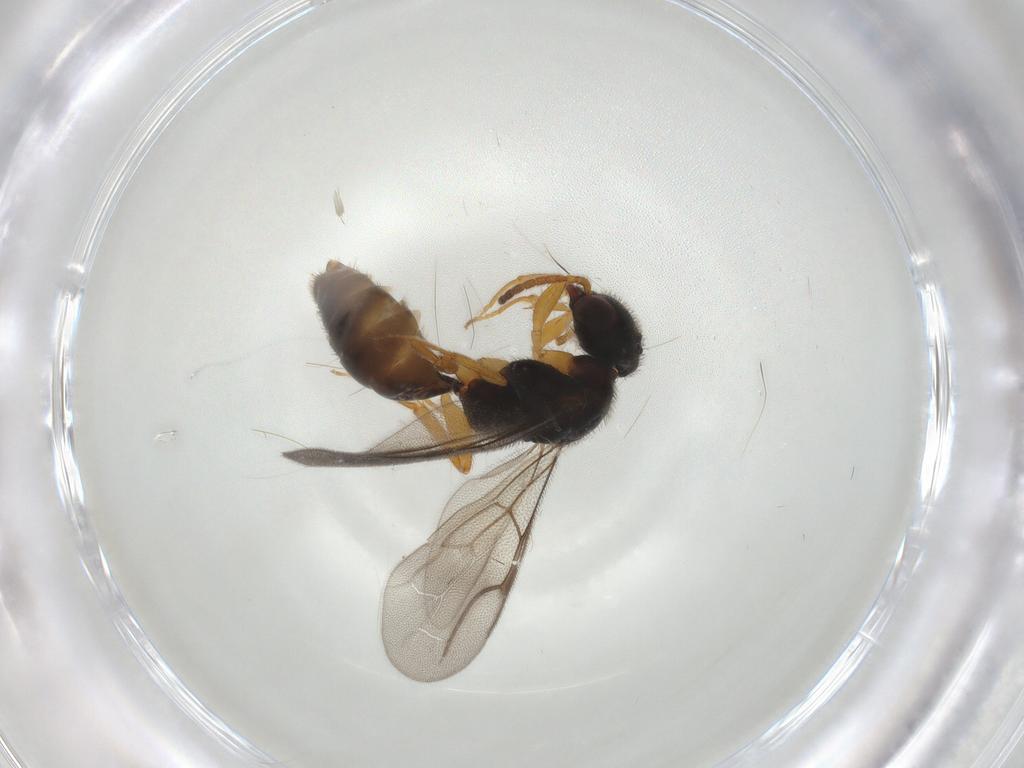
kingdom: Animalia
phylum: Arthropoda
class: Insecta
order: Hymenoptera
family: Bethylidae
